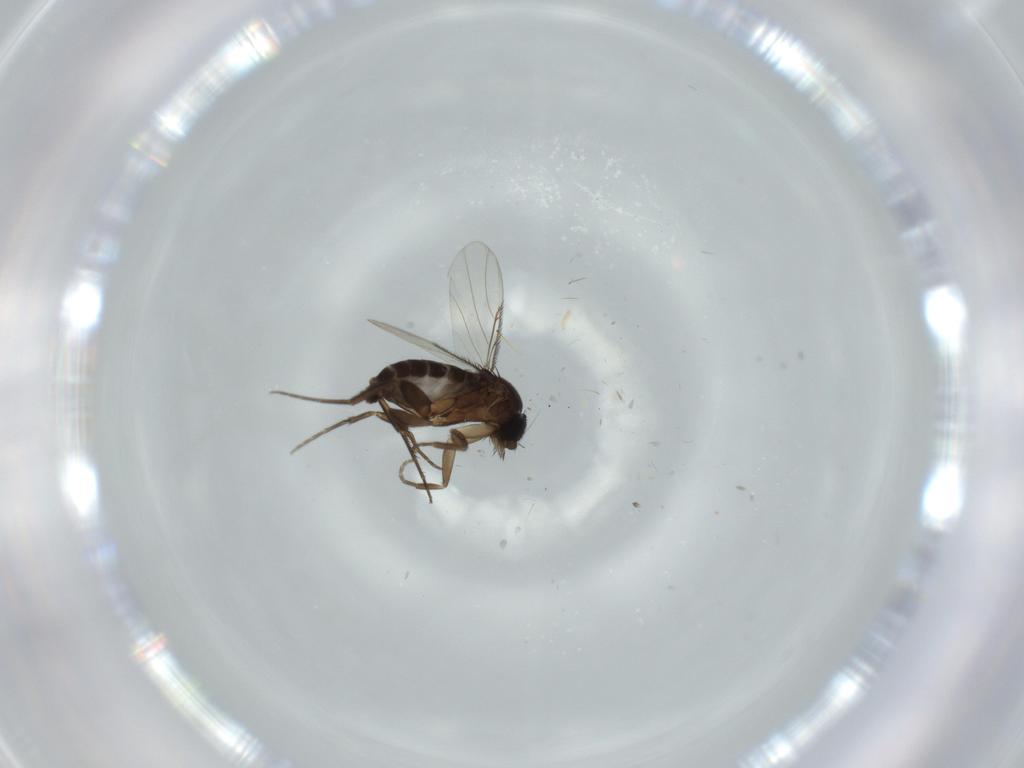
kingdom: Animalia
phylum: Arthropoda
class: Insecta
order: Diptera
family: Phoridae
